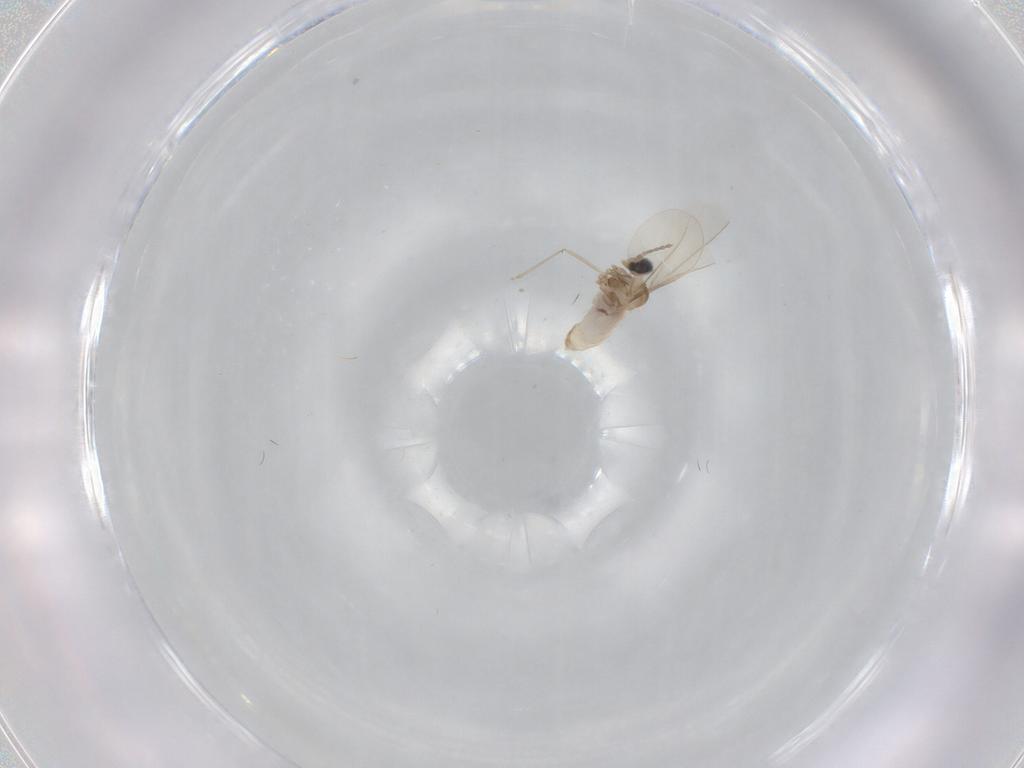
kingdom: Animalia
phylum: Arthropoda
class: Insecta
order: Diptera
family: Cecidomyiidae
